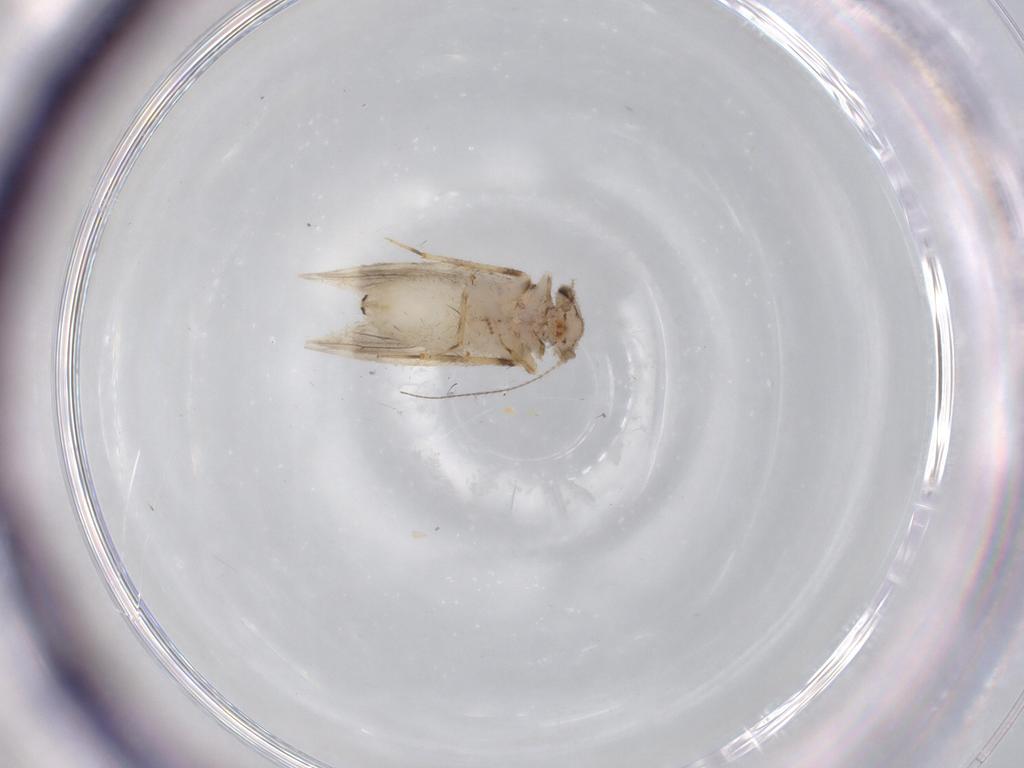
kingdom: Animalia
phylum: Arthropoda
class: Insecta
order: Psocodea
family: Lepidopsocidae
